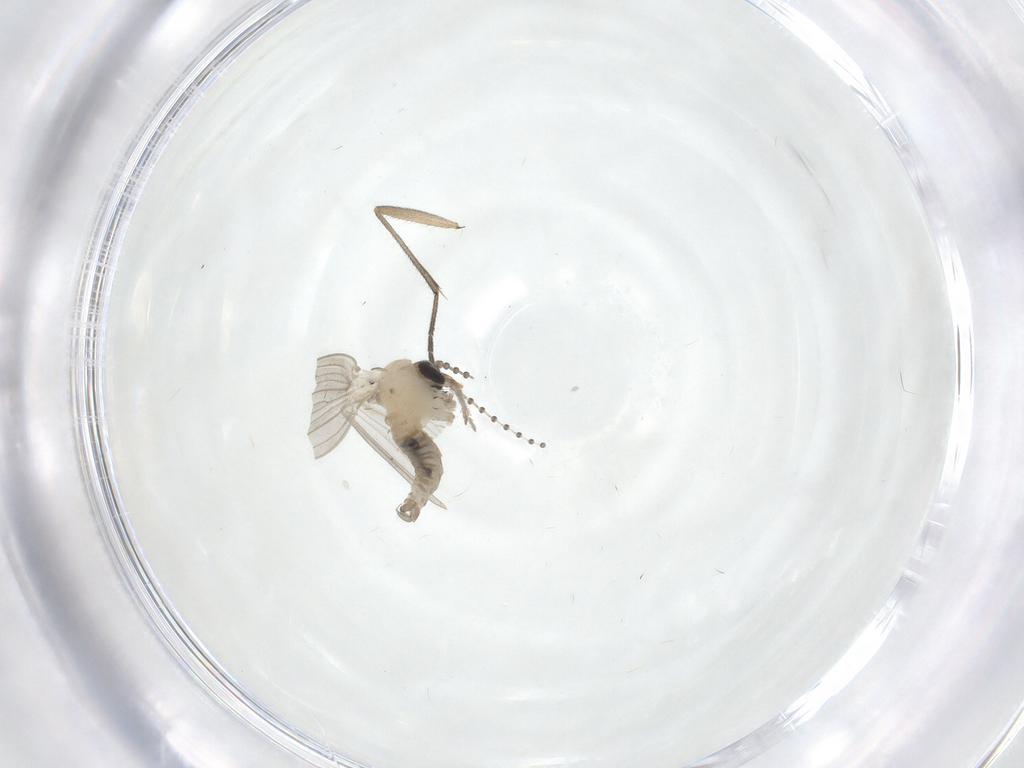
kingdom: Animalia
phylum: Arthropoda
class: Insecta
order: Diptera
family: Psychodidae
